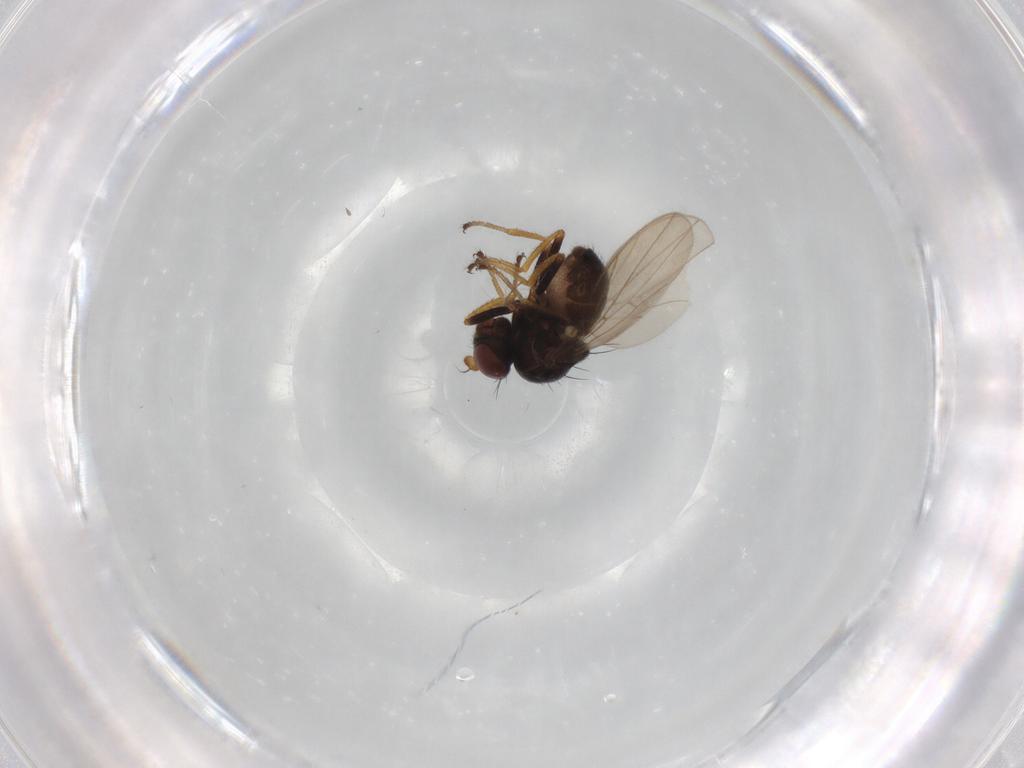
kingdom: Animalia
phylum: Arthropoda
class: Insecta
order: Diptera
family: Ephydridae
